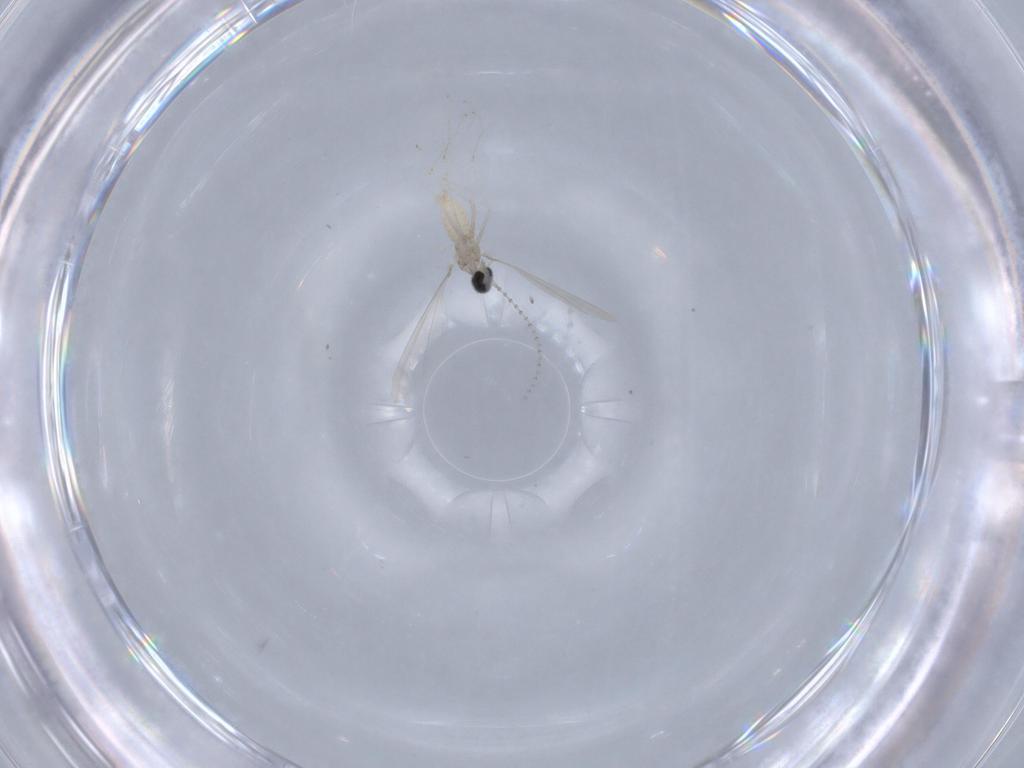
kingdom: Animalia
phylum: Arthropoda
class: Insecta
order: Diptera
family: Cecidomyiidae
